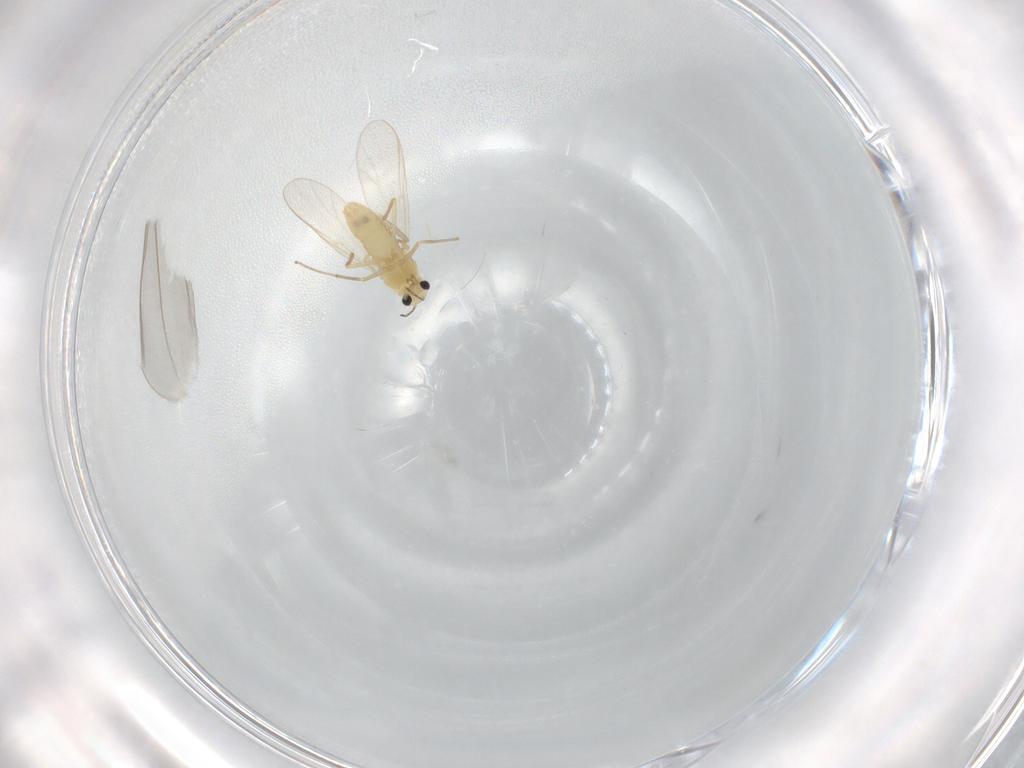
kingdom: Animalia
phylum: Arthropoda
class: Insecta
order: Diptera
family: Chironomidae
